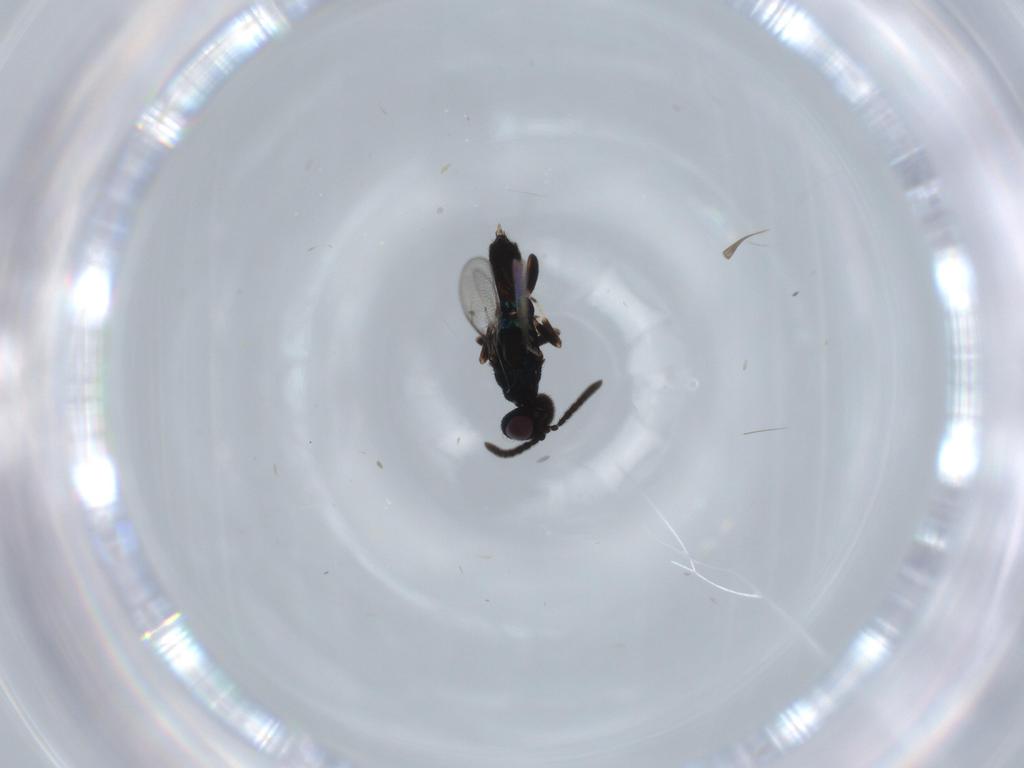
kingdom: Animalia
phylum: Arthropoda
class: Insecta
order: Hymenoptera
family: Eupelmidae
